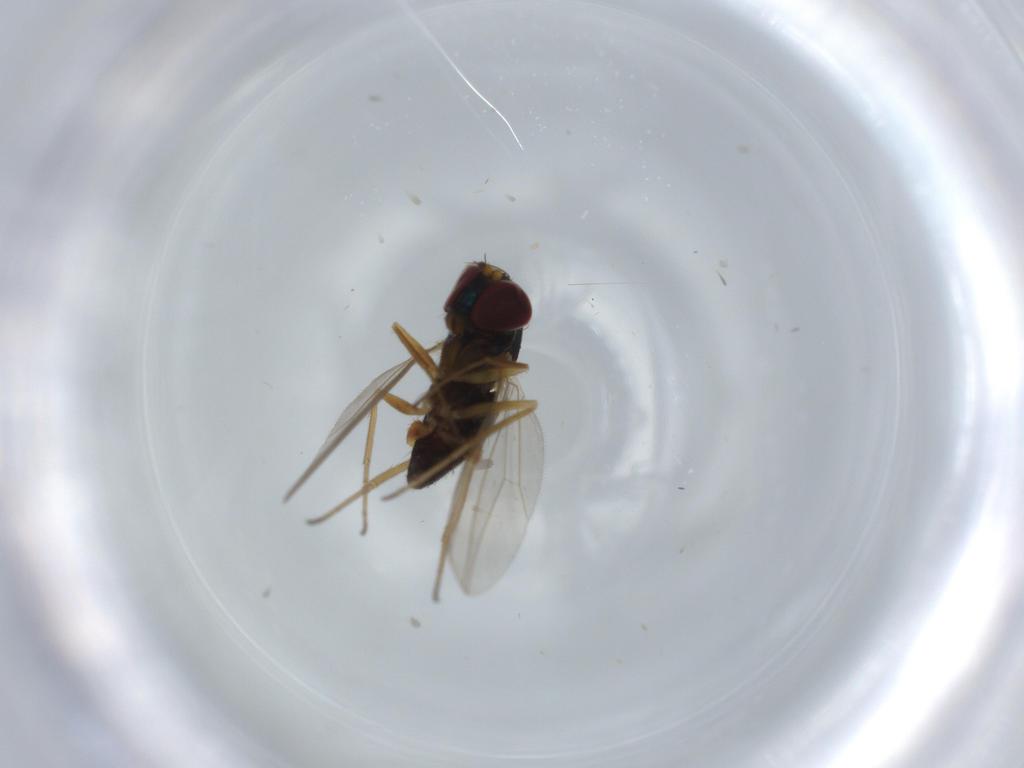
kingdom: Animalia
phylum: Arthropoda
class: Insecta
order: Diptera
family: Dolichopodidae
